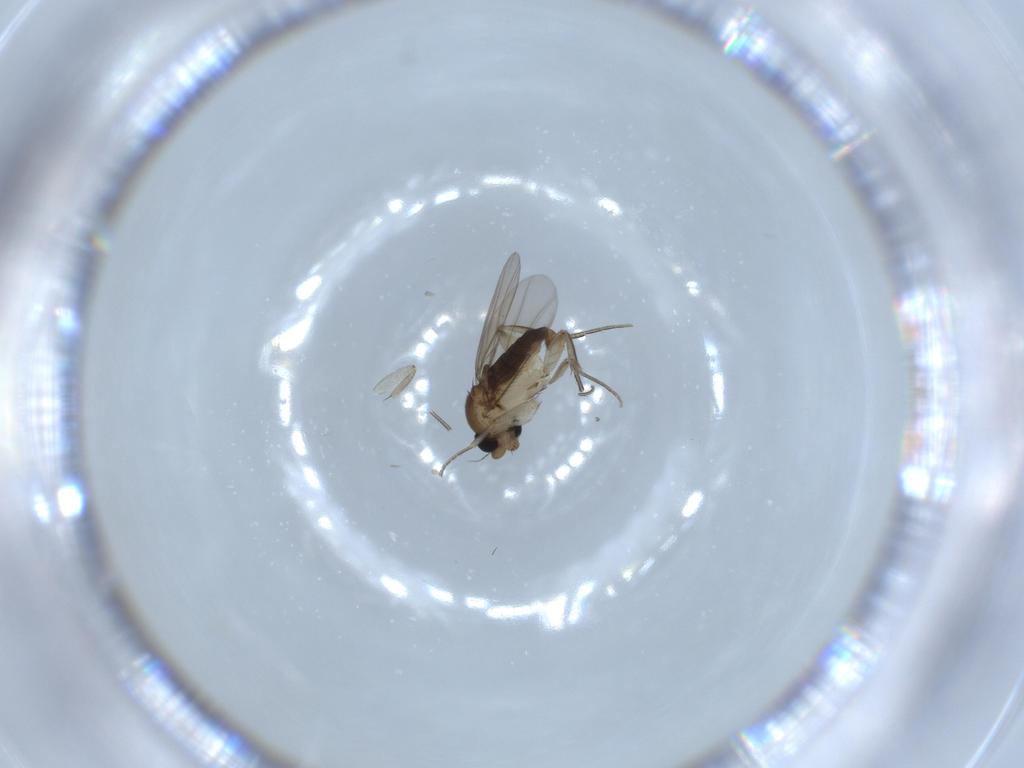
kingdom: Animalia
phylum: Arthropoda
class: Insecta
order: Diptera
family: Phoridae
